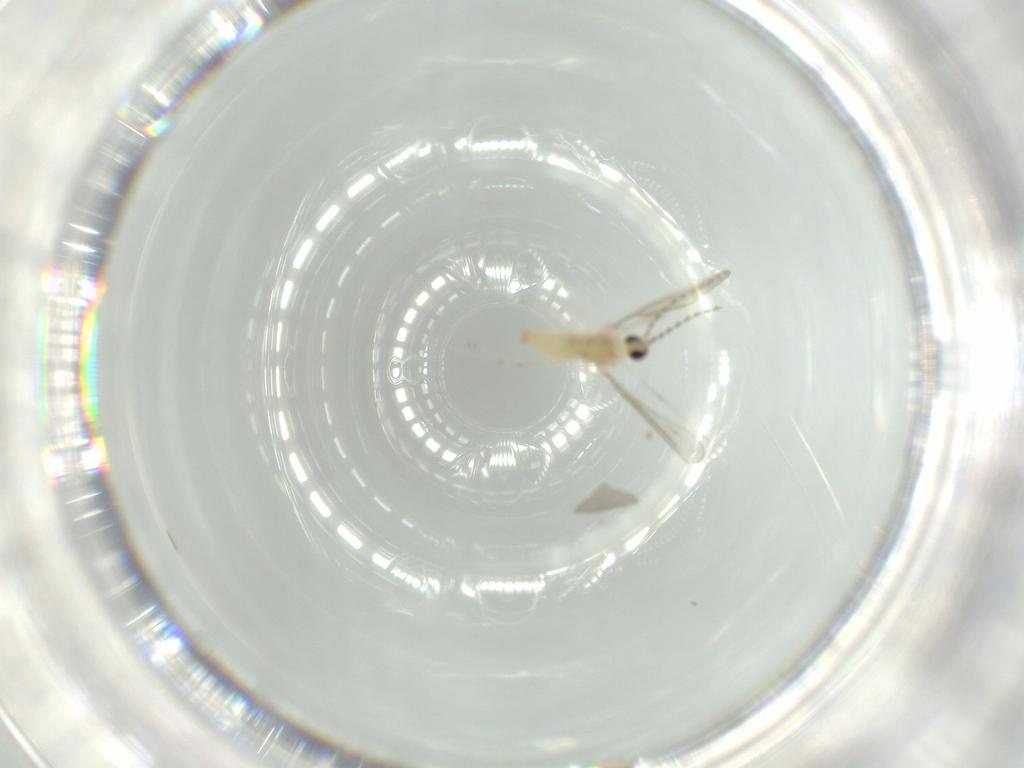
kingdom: Animalia
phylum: Arthropoda
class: Insecta
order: Diptera
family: Cecidomyiidae
